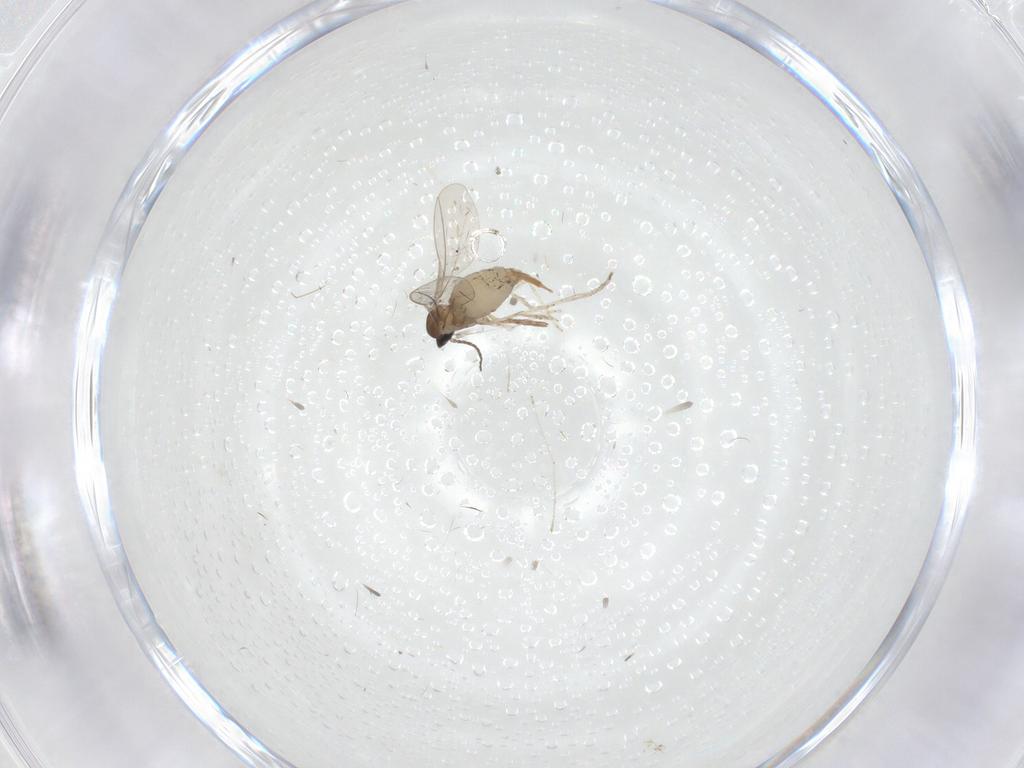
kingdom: Animalia
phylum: Arthropoda
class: Insecta
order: Diptera
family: Cecidomyiidae
